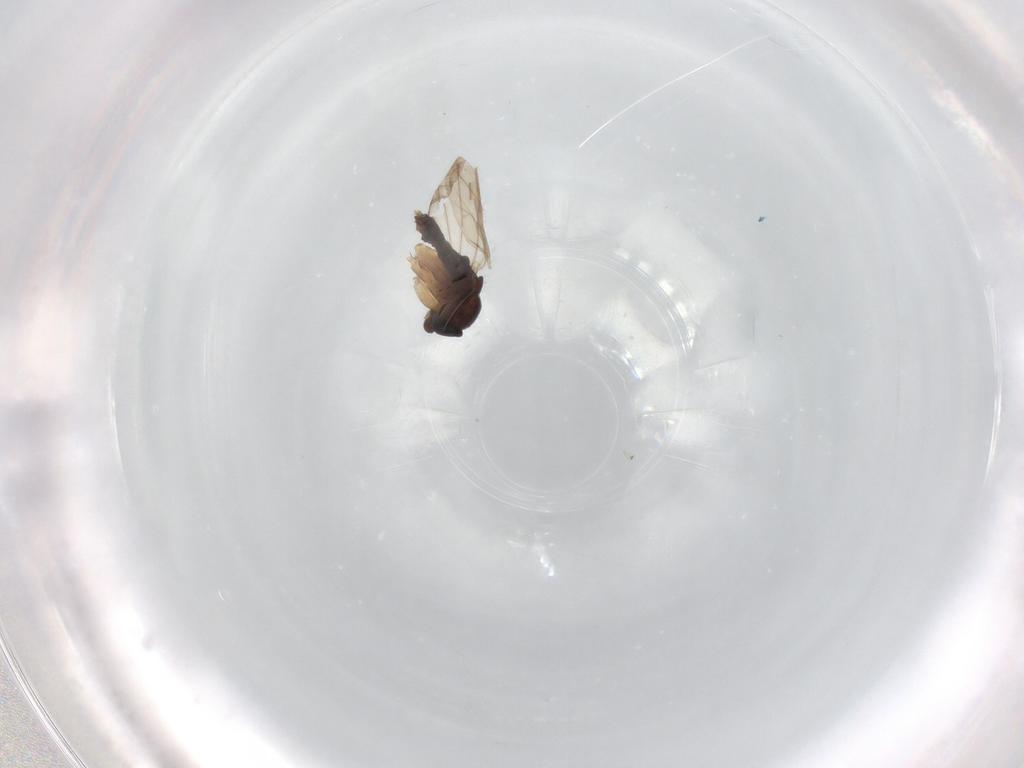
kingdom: Animalia
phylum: Arthropoda
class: Insecta
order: Diptera
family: Phoridae
